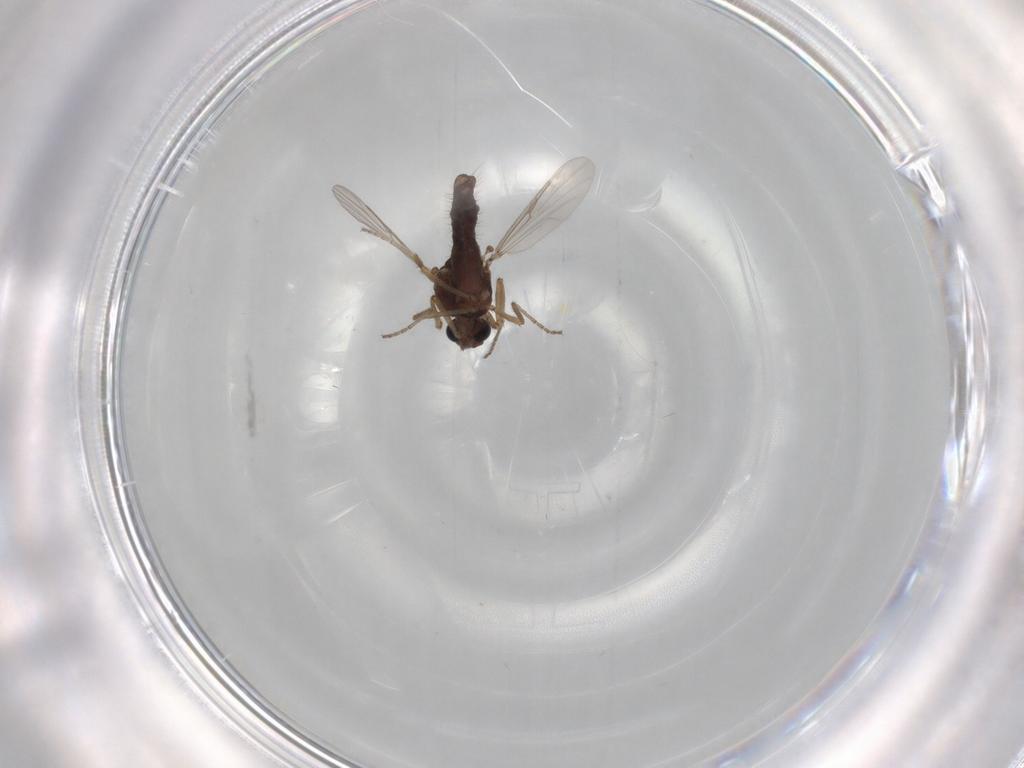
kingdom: Animalia
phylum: Arthropoda
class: Insecta
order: Diptera
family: Ceratopogonidae
